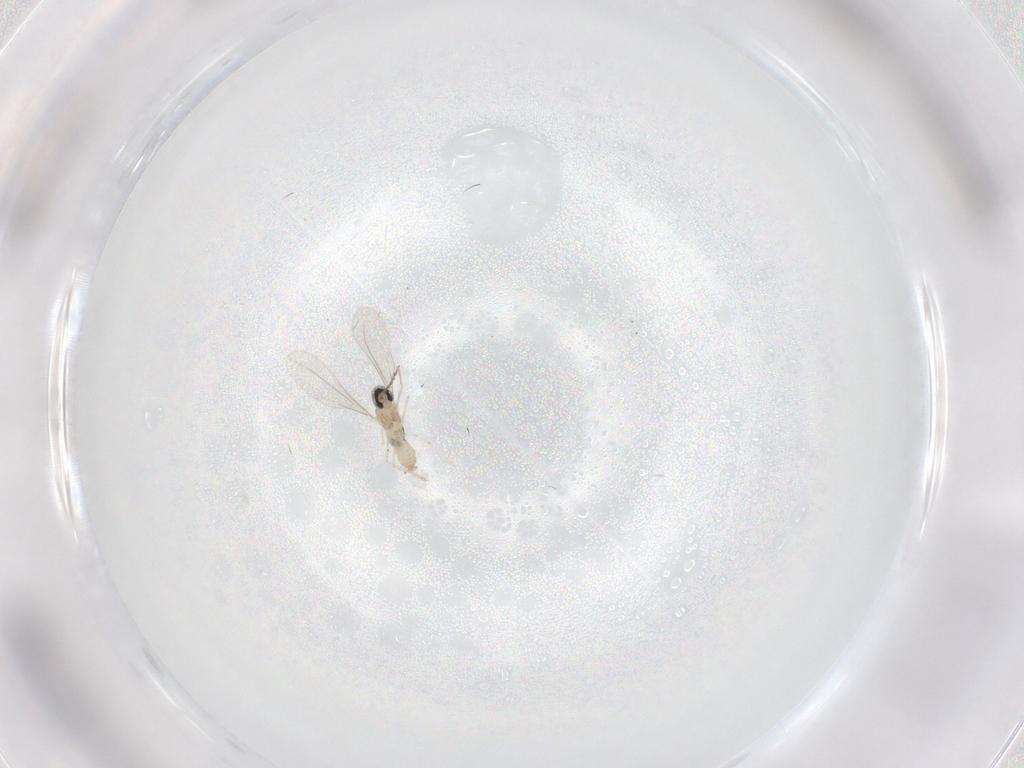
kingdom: Animalia
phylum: Arthropoda
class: Insecta
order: Diptera
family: Cecidomyiidae
